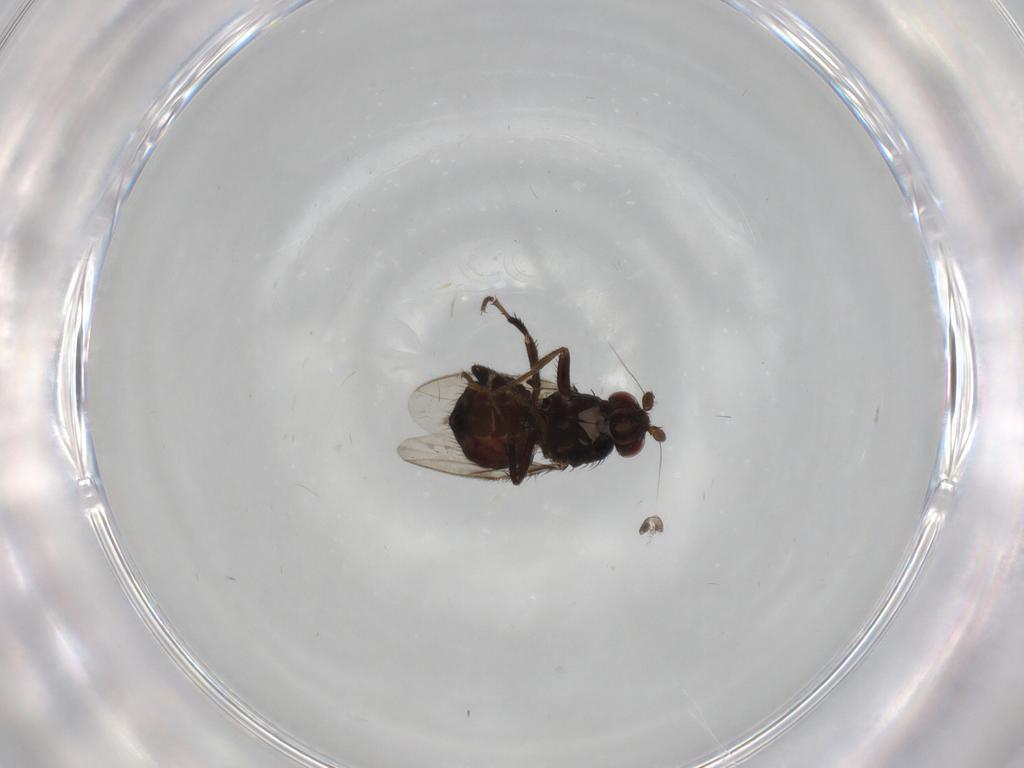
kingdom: Animalia
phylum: Arthropoda
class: Insecta
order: Diptera
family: Sphaeroceridae
